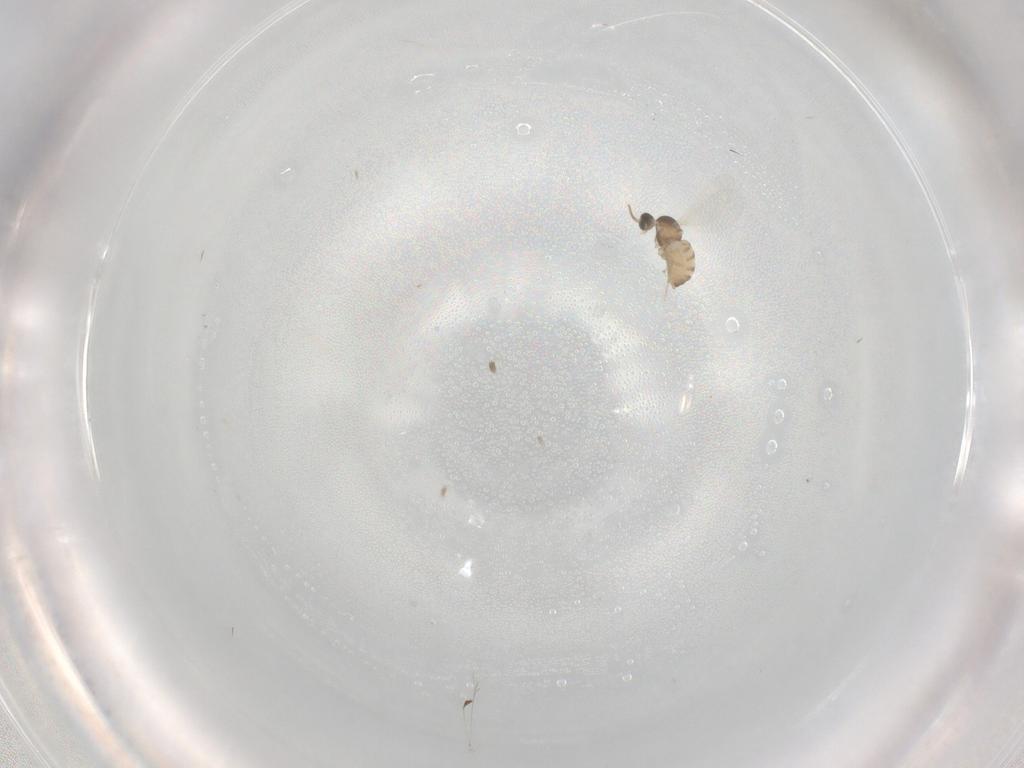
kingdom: Animalia
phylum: Arthropoda
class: Insecta
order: Diptera
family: Cecidomyiidae
